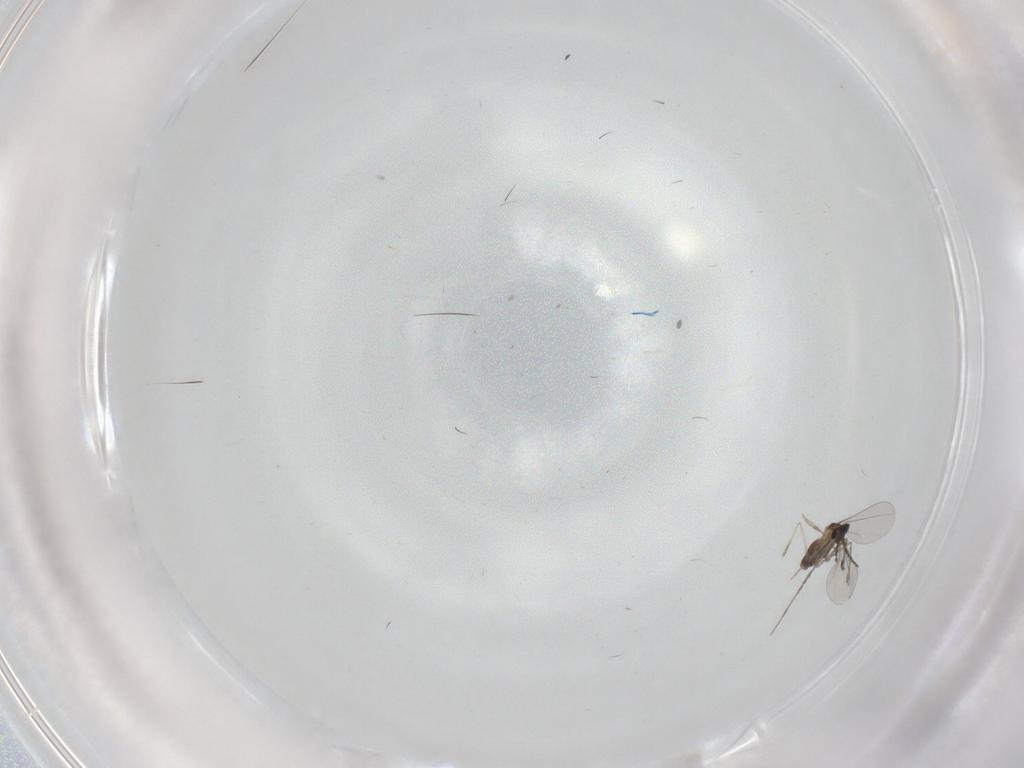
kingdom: Animalia
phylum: Arthropoda
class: Insecta
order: Diptera
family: Cecidomyiidae
